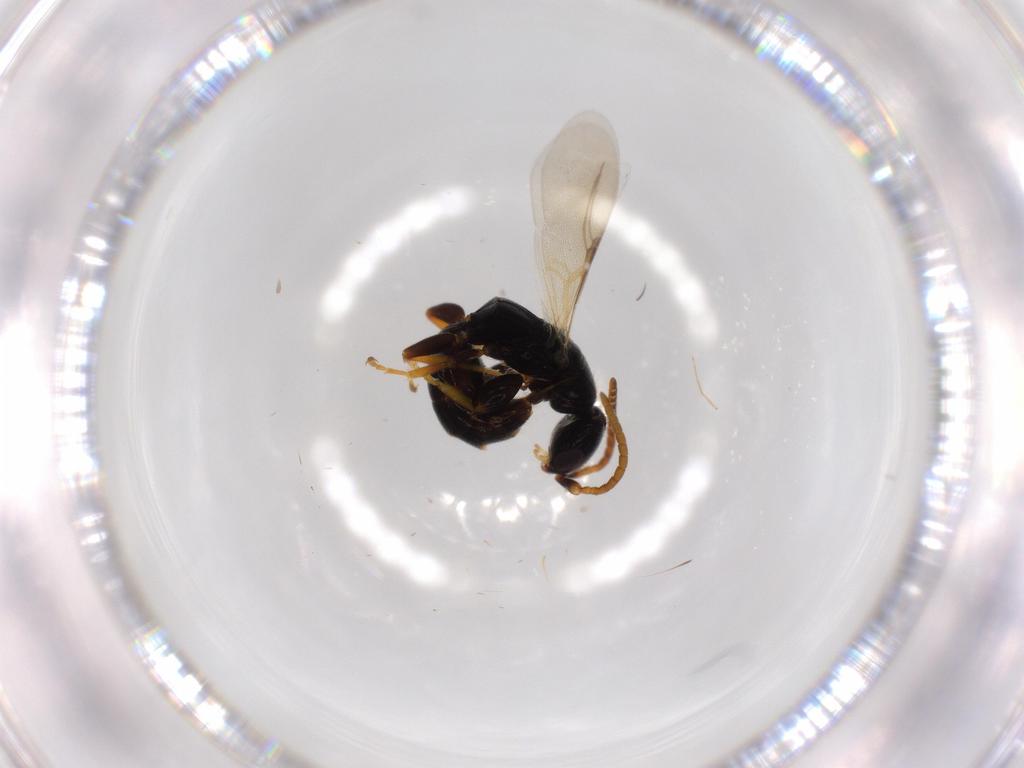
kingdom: Animalia
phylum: Arthropoda
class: Insecta
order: Hymenoptera
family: Bethylidae
